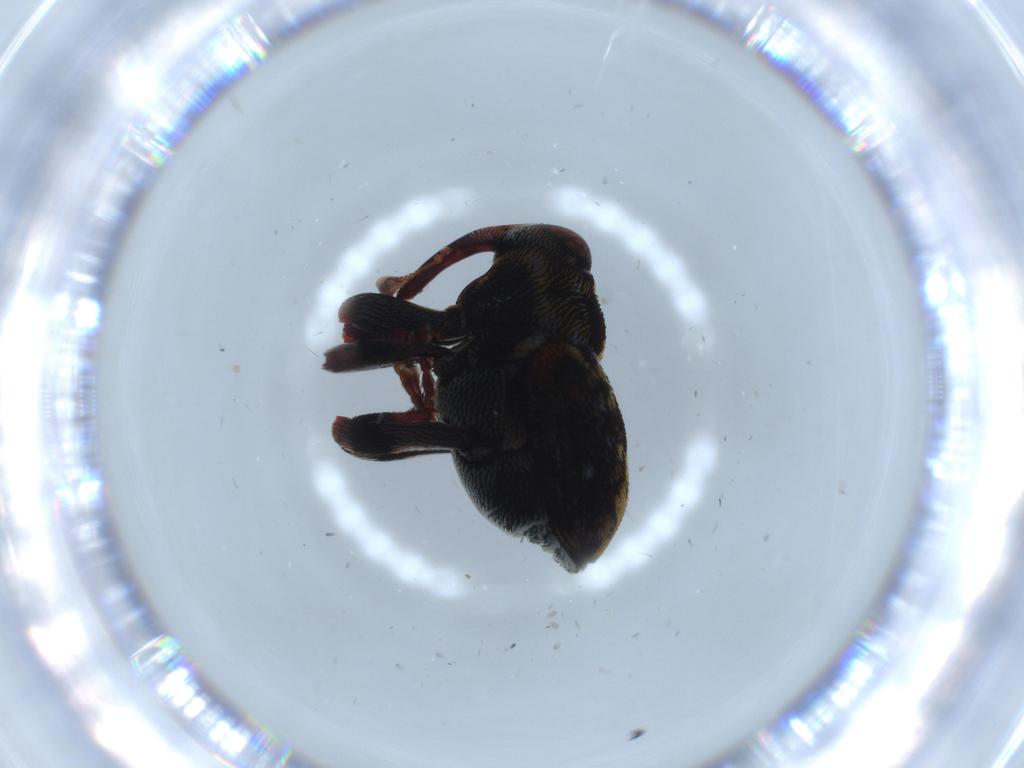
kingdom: Animalia
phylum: Arthropoda
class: Insecta
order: Coleoptera
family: Curculionidae
